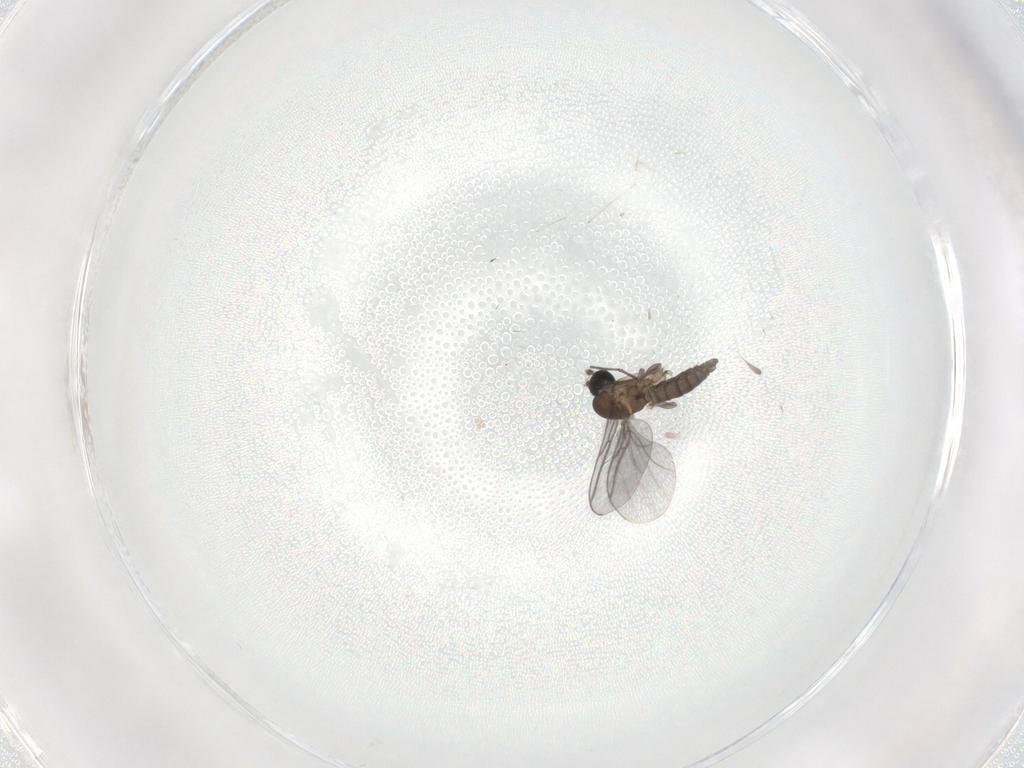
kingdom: Animalia
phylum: Arthropoda
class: Insecta
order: Diptera
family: Sciaridae
